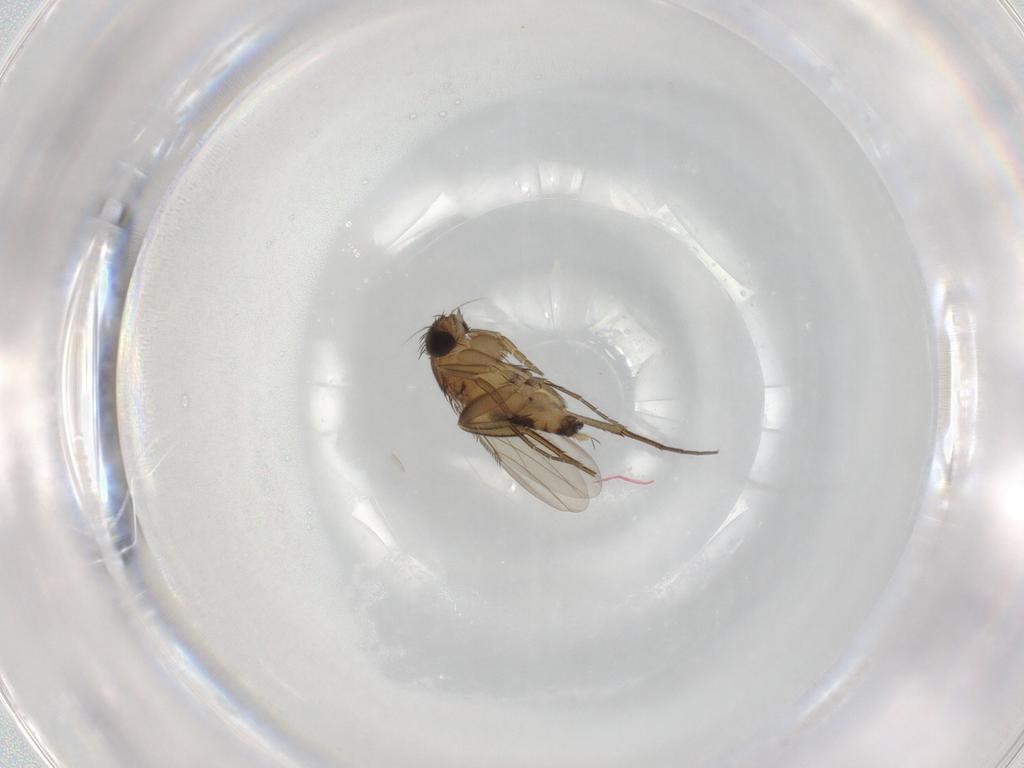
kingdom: Animalia
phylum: Arthropoda
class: Insecta
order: Diptera
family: Phoridae
